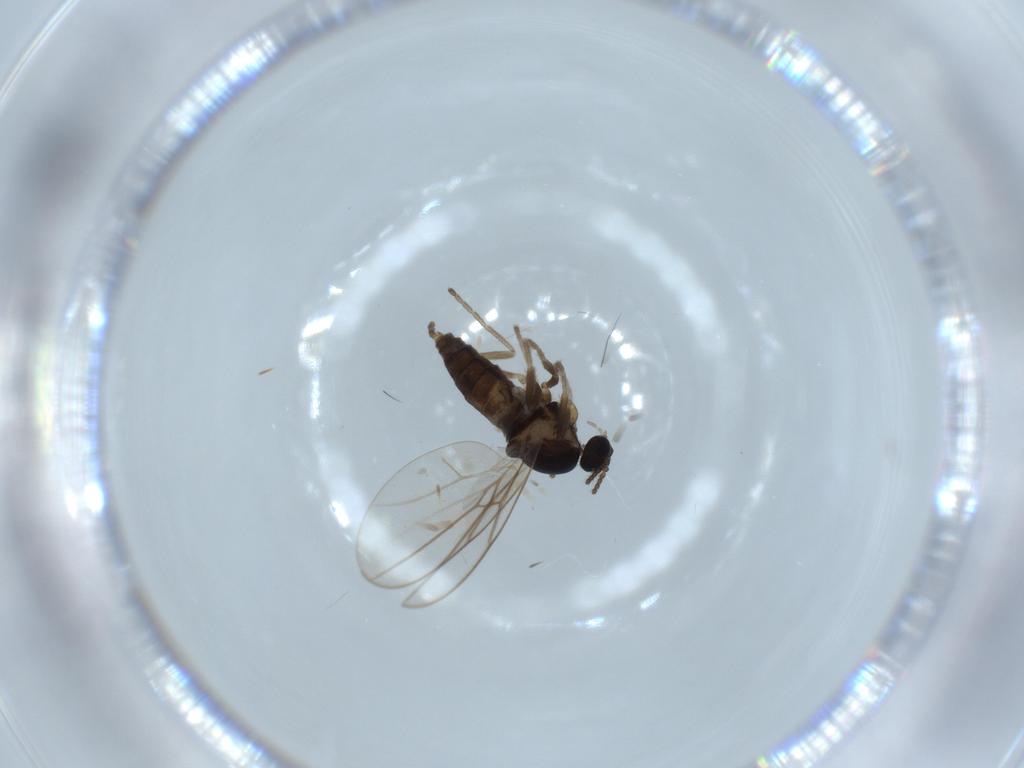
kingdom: Animalia
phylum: Arthropoda
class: Insecta
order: Diptera
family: Cecidomyiidae
